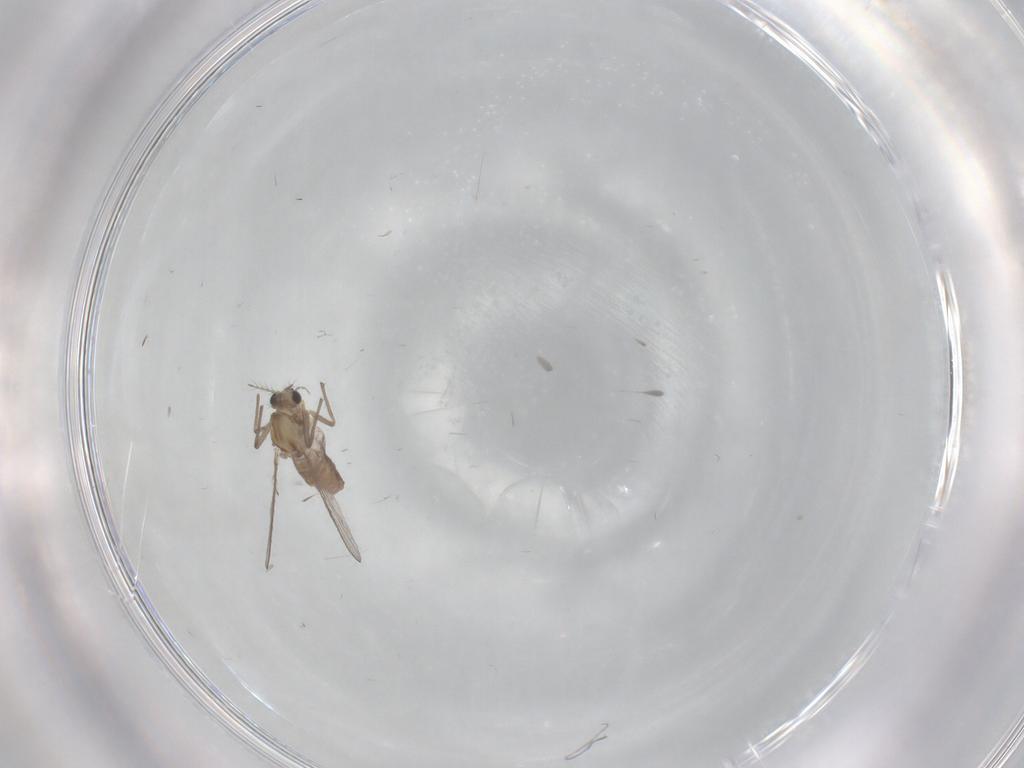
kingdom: Animalia
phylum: Arthropoda
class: Insecta
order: Diptera
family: Chironomidae
